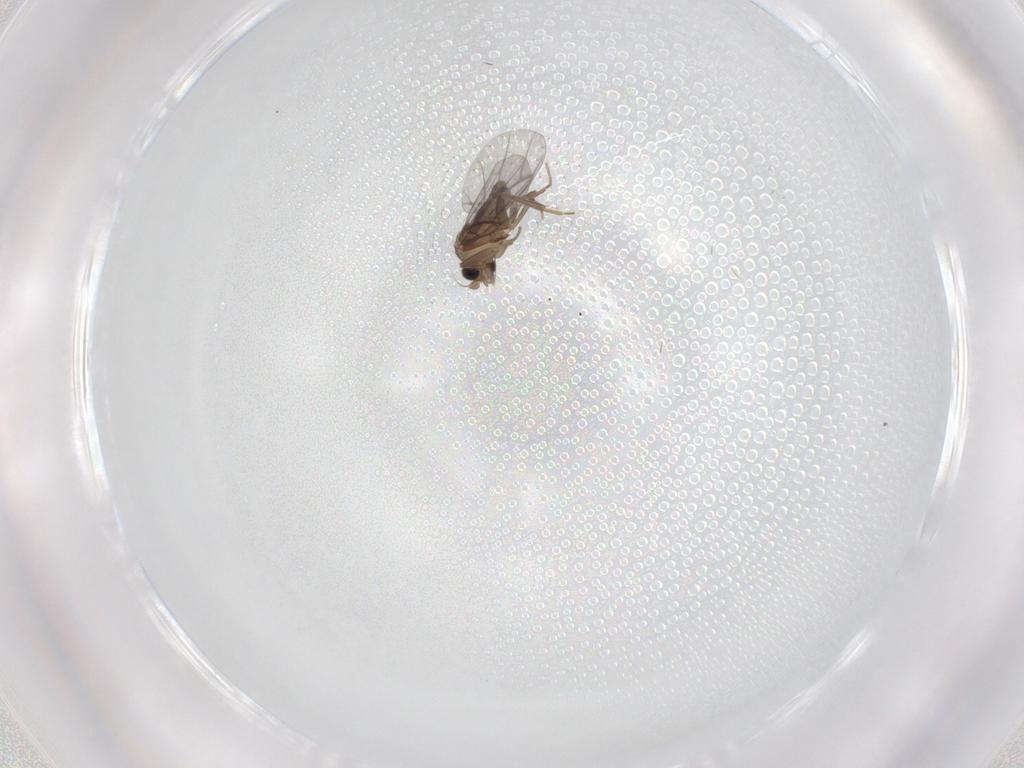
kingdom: Animalia
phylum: Arthropoda
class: Insecta
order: Diptera
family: Cecidomyiidae
